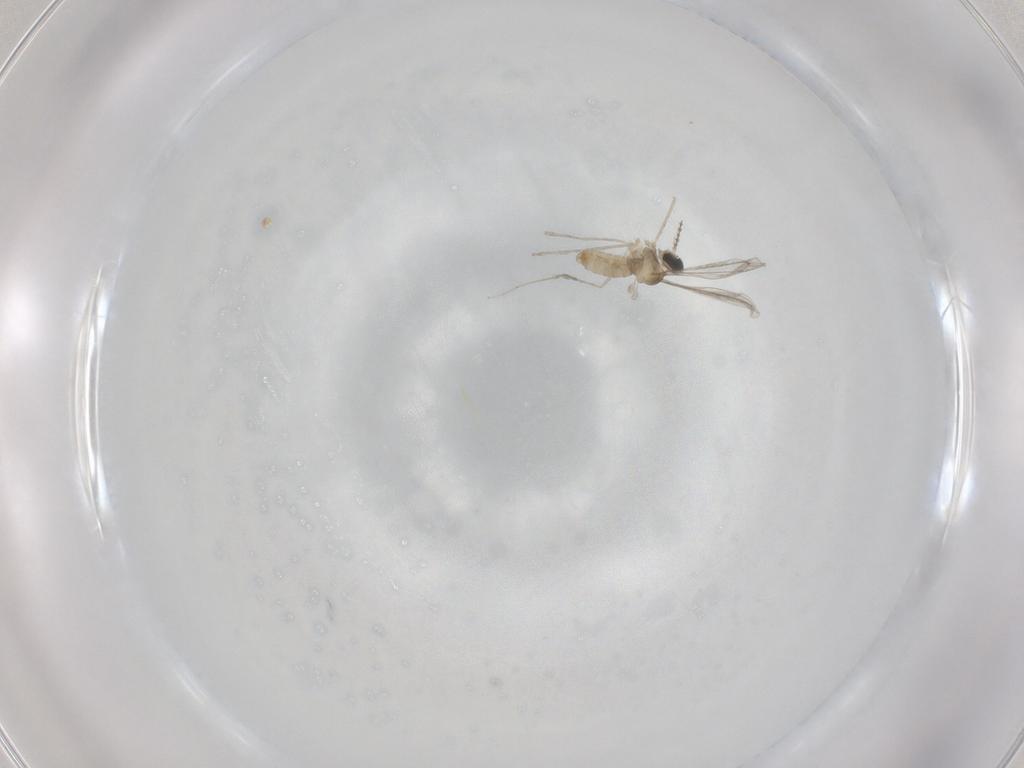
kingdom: Animalia
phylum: Arthropoda
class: Insecta
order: Diptera
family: Cecidomyiidae
